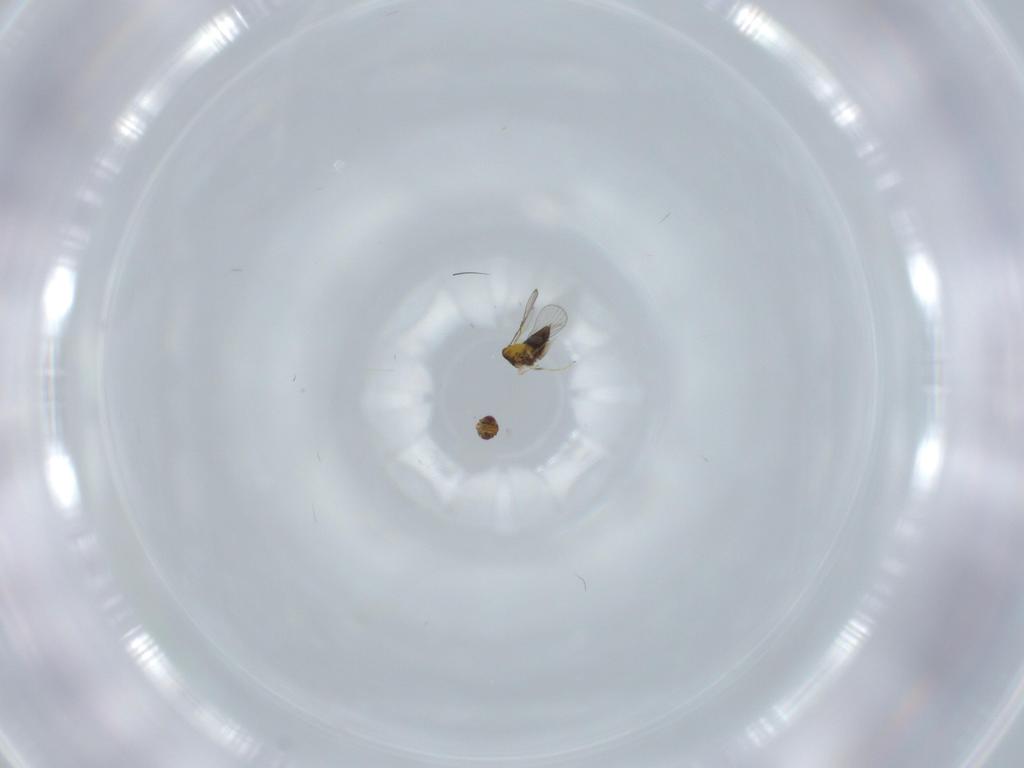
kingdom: Animalia
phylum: Arthropoda
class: Insecta
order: Hymenoptera
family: Trichogrammatidae
